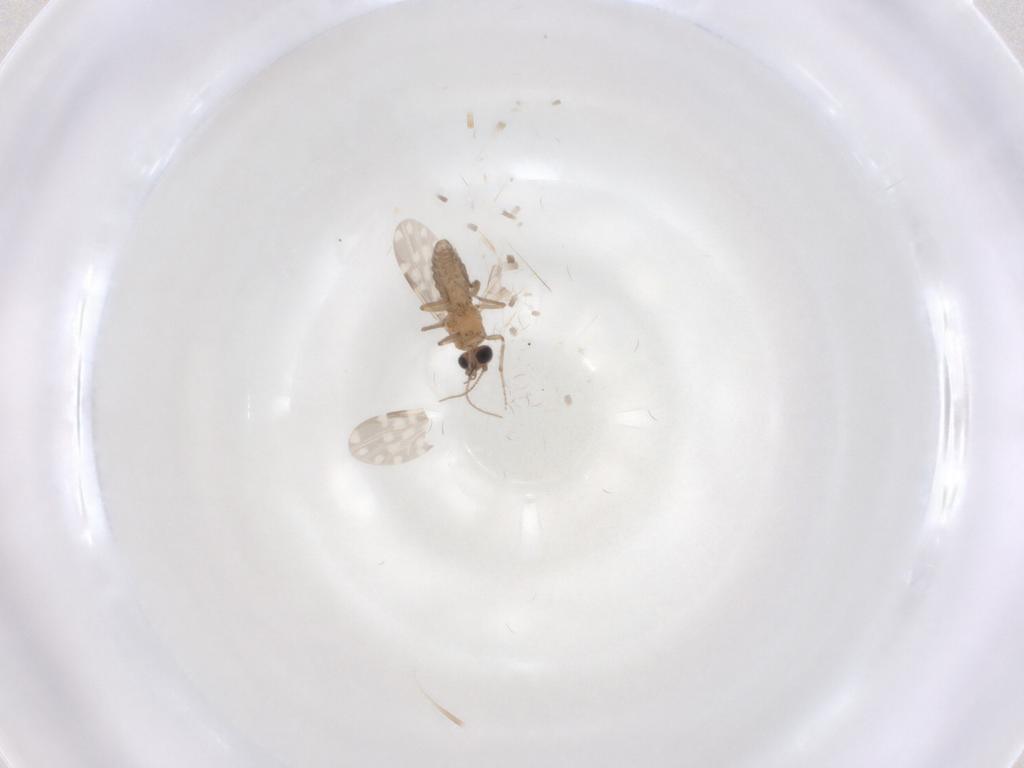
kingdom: Animalia
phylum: Arthropoda
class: Insecta
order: Diptera
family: Ceratopogonidae
